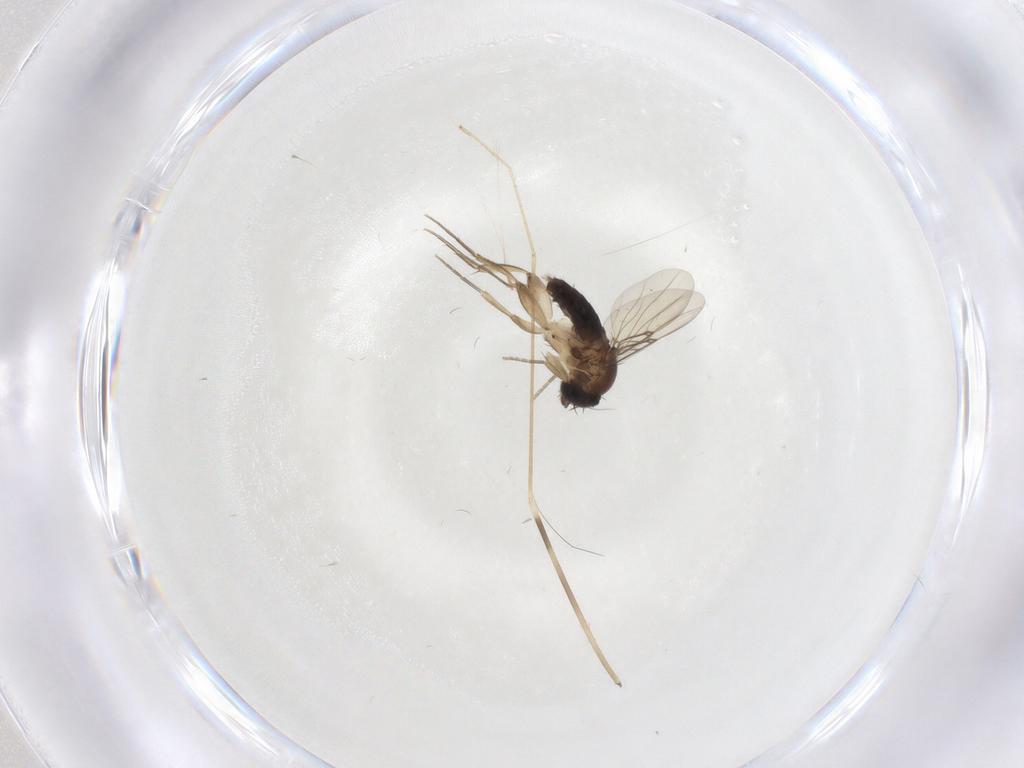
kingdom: Animalia
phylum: Arthropoda
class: Insecta
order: Diptera
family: Phoridae
